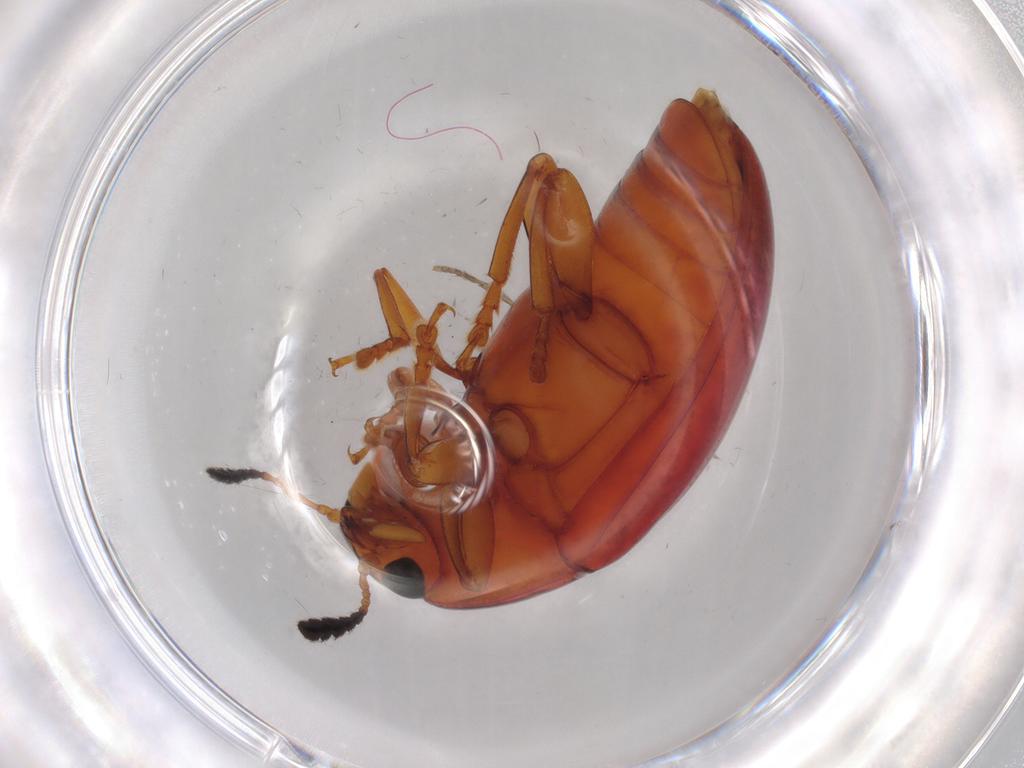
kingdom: Animalia
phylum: Arthropoda
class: Insecta
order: Coleoptera
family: Erotylidae
